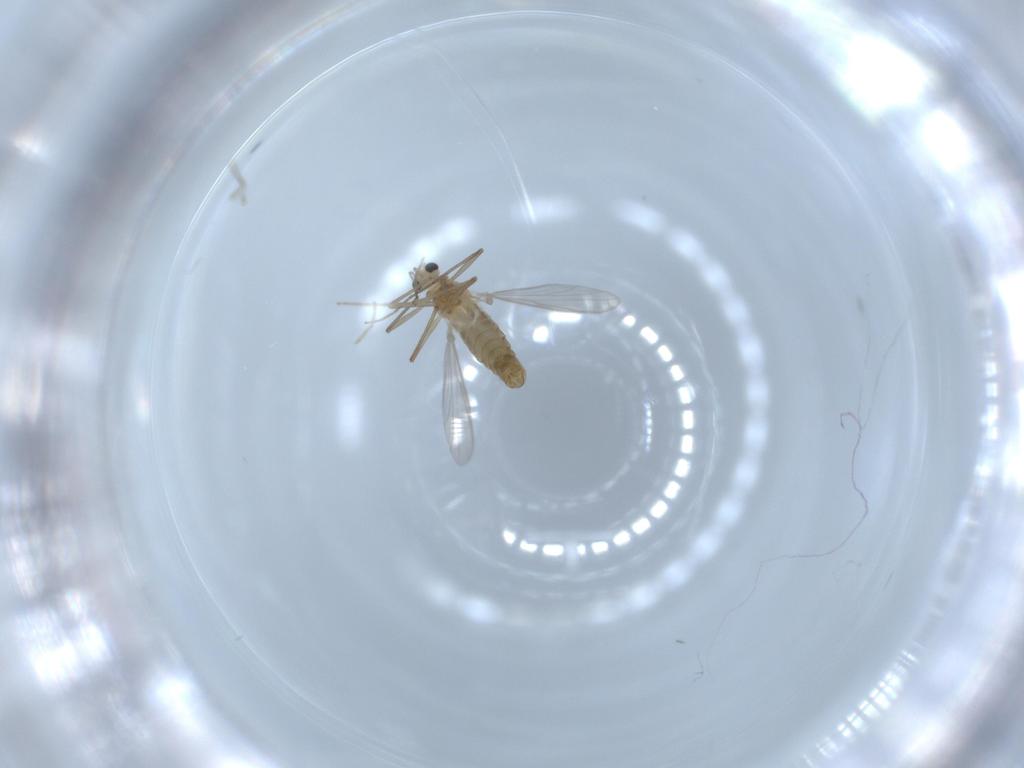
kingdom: Animalia
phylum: Arthropoda
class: Insecta
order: Diptera
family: Chironomidae
